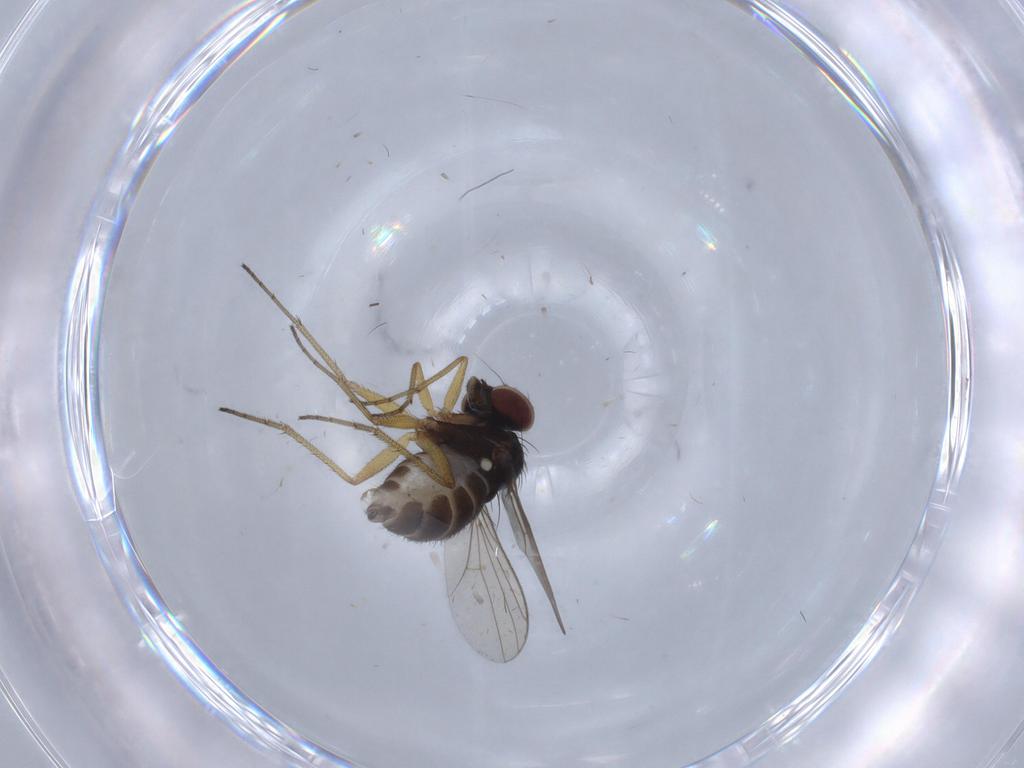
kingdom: Animalia
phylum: Arthropoda
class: Insecta
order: Diptera
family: Dolichopodidae
